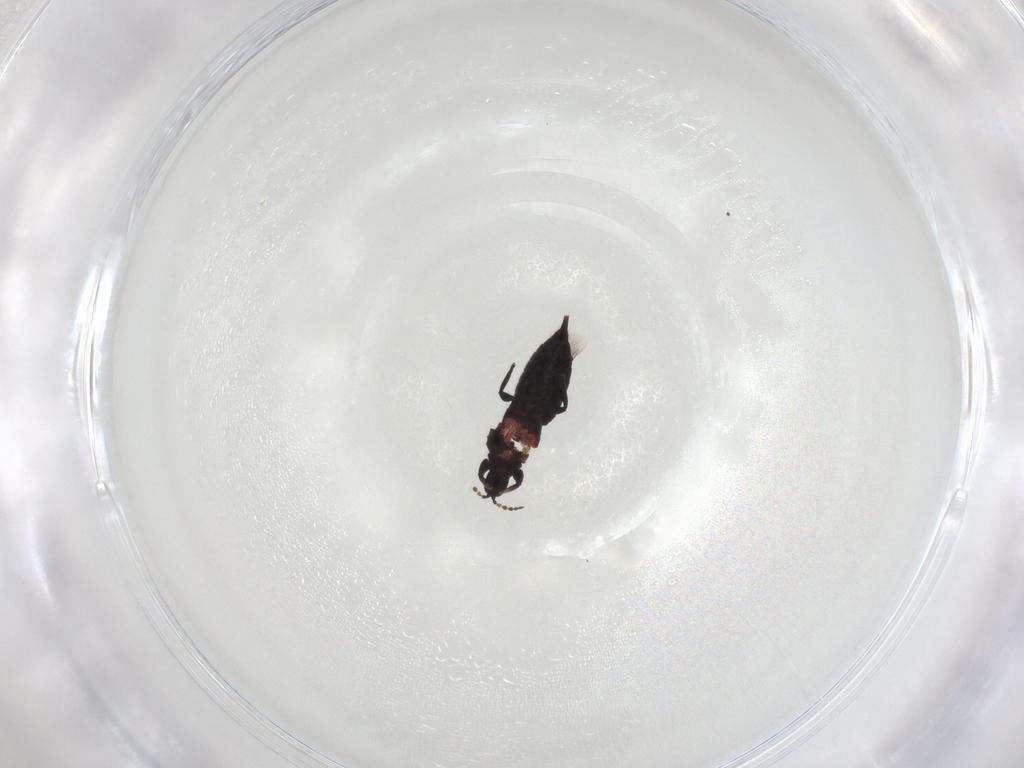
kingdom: Animalia
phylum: Arthropoda
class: Insecta
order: Thysanoptera
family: Phlaeothripidae
